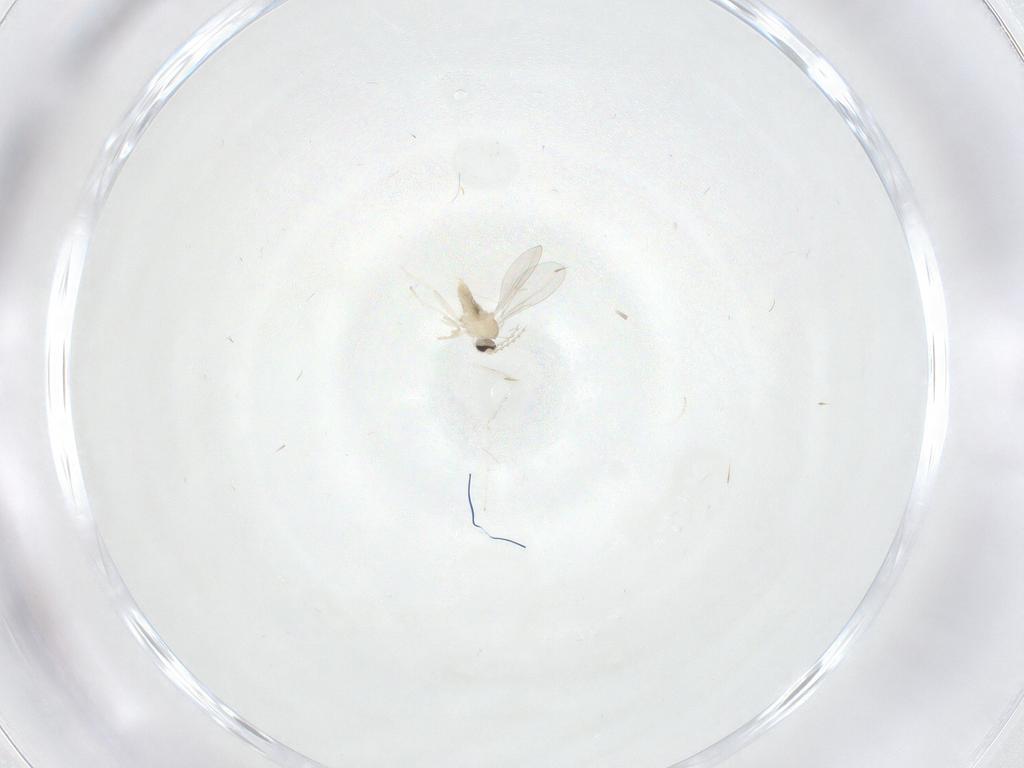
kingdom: Animalia
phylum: Arthropoda
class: Insecta
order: Diptera
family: Cecidomyiidae
